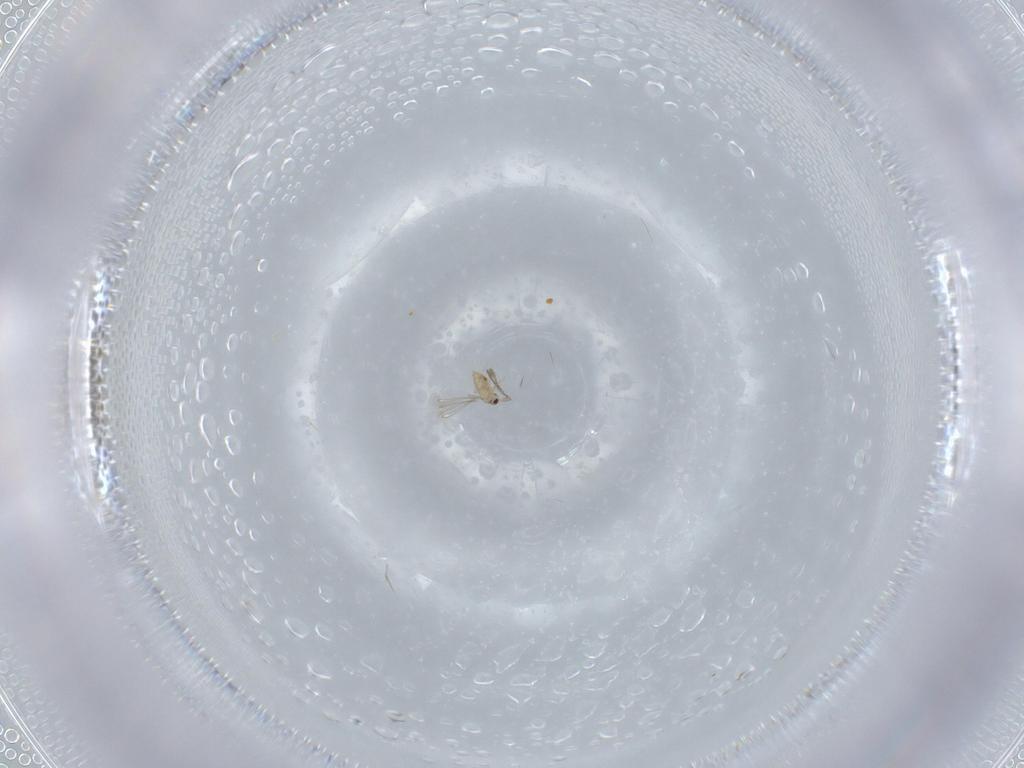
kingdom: Animalia
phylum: Arthropoda
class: Insecta
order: Hymenoptera
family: Mymaridae
